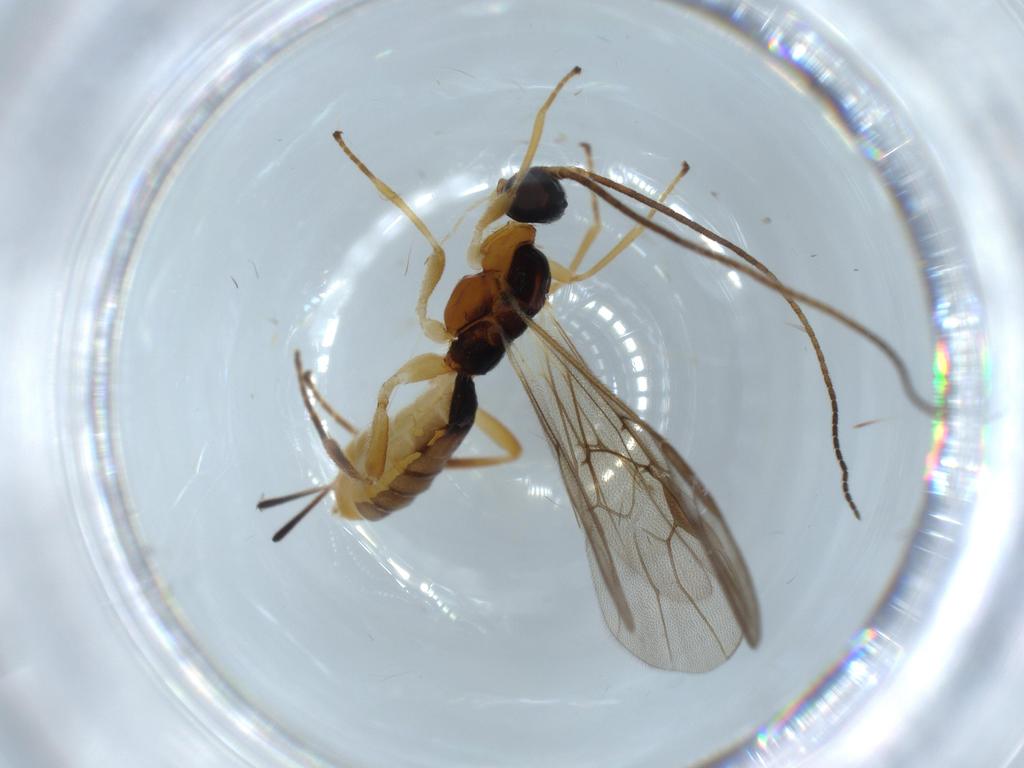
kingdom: Animalia
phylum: Arthropoda
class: Insecta
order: Hymenoptera
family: Braconidae
